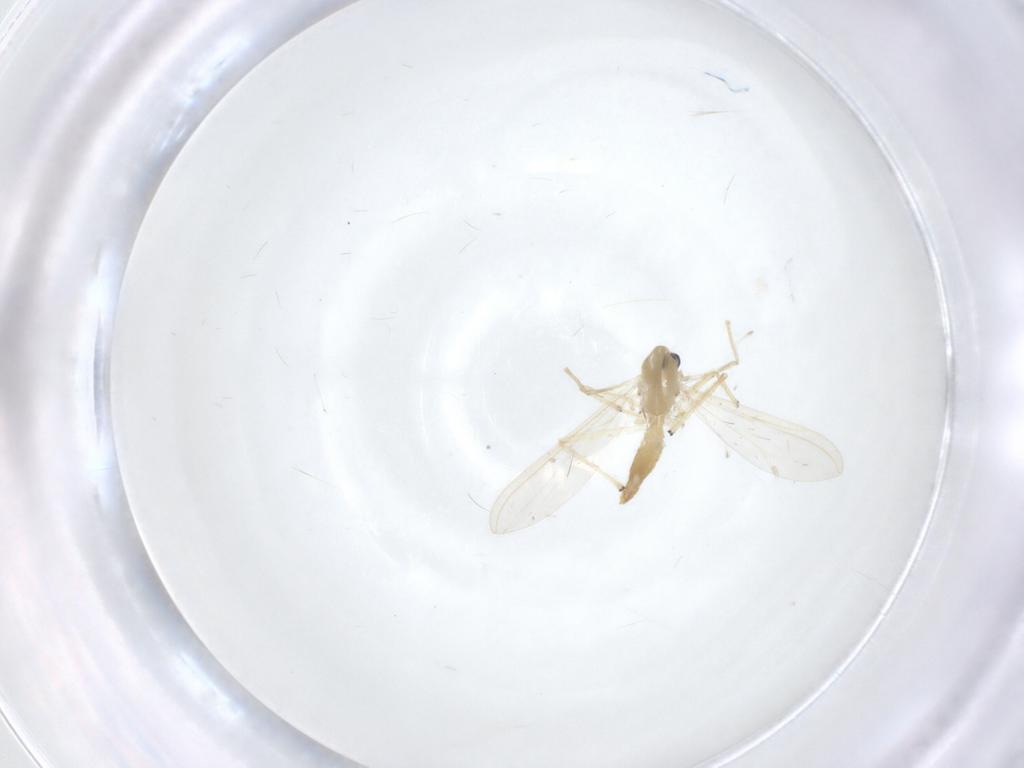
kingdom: Animalia
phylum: Arthropoda
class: Insecta
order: Diptera
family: Chironomidae
